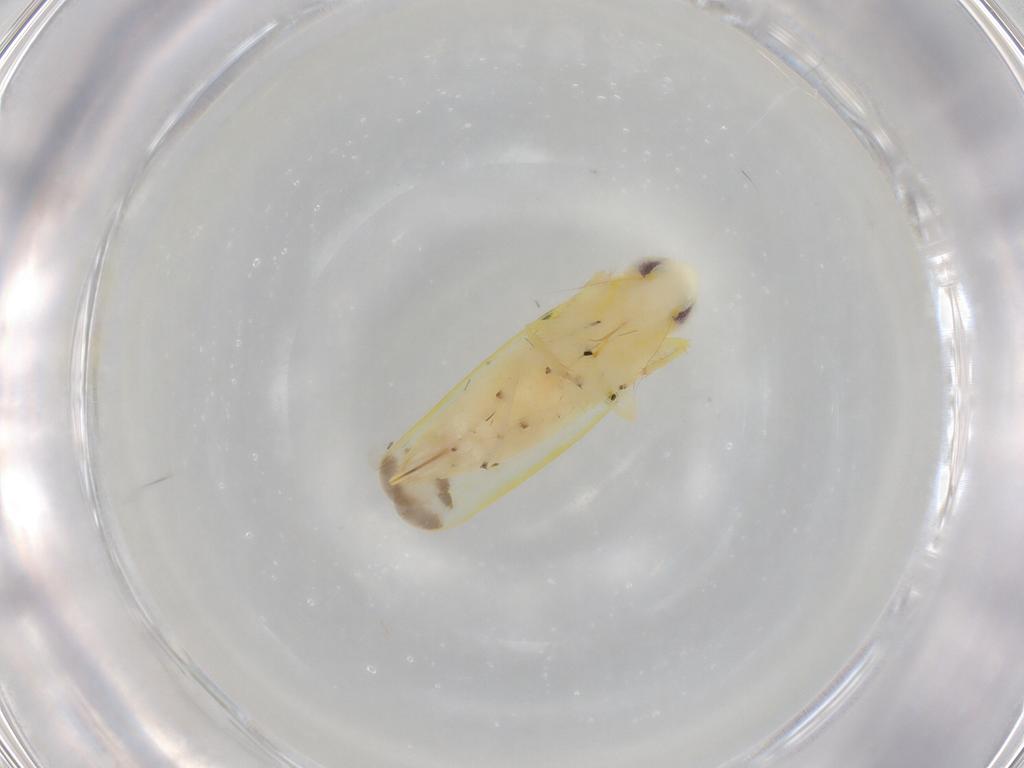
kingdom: Animalia
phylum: Arthropoda
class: Insecta
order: Hemiptera
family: Cicadellidae
